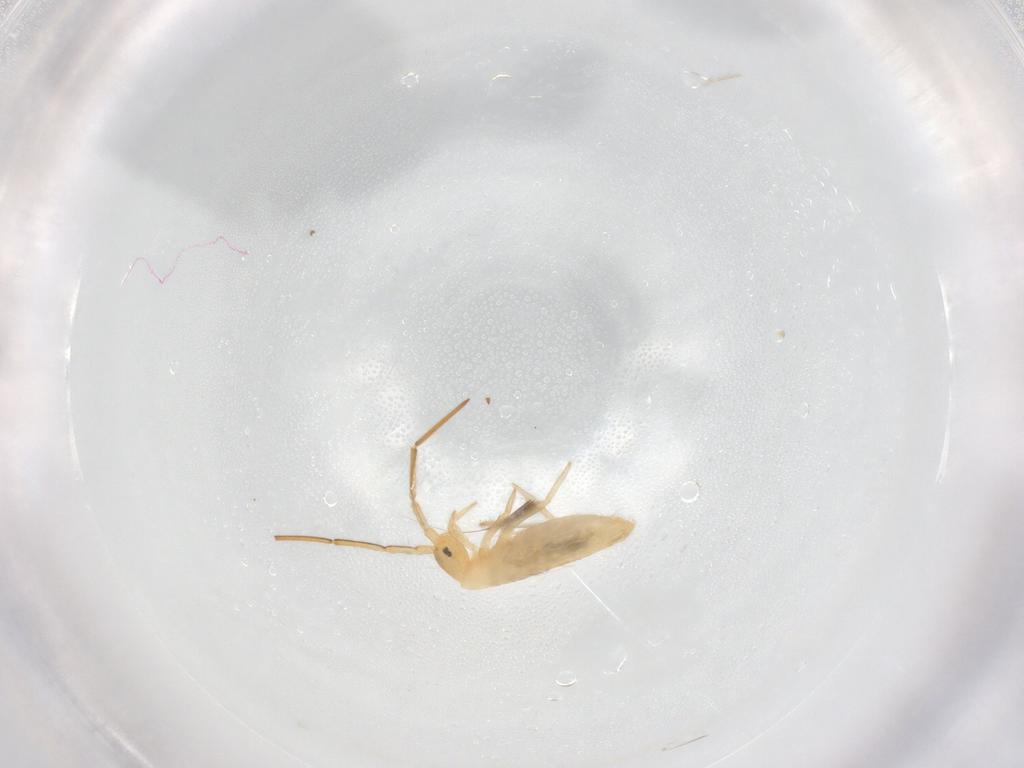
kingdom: Animalia
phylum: Arthropoda
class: Collembola
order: Entomobryomorpha
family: Entomobryidae
